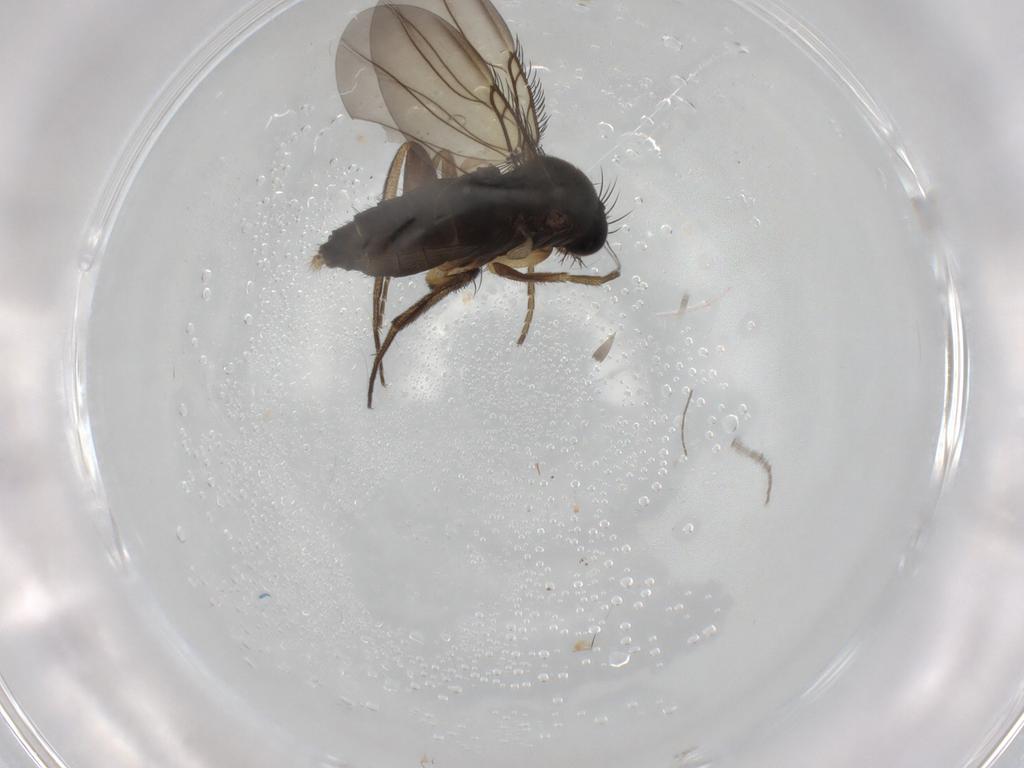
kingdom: Animalia
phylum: Arthropoda
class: Insecta
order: Diptera
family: Phoridae
